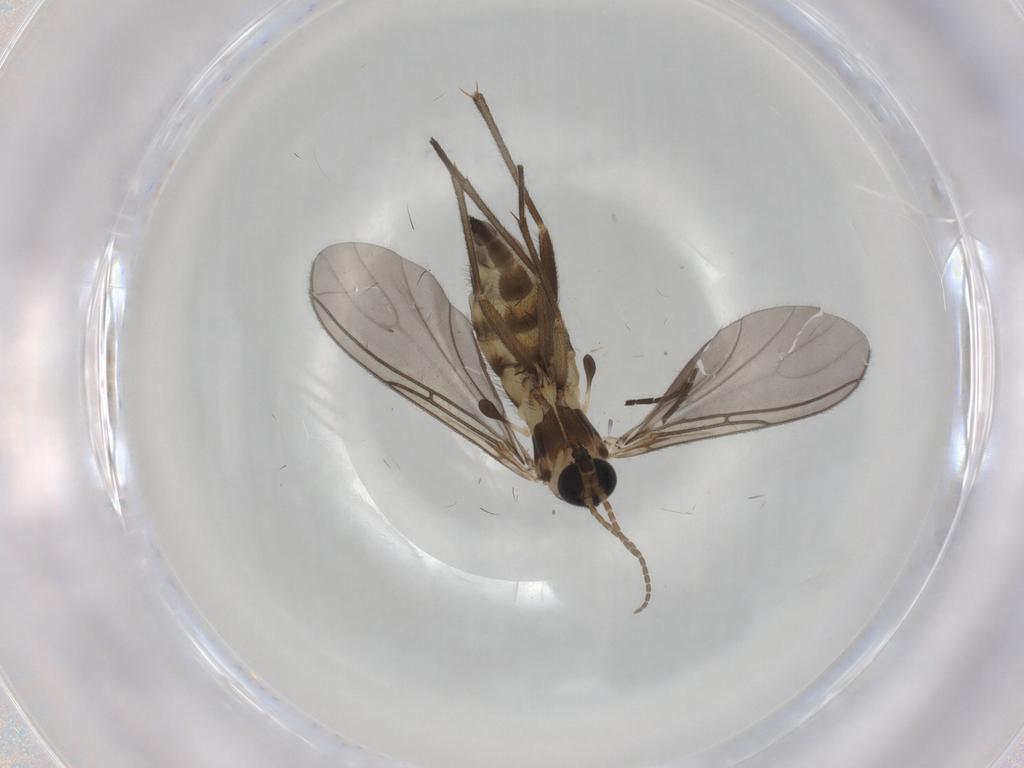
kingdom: Animalia
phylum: Arthropoda
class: Insecta
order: Diptera
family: Sciaridae
